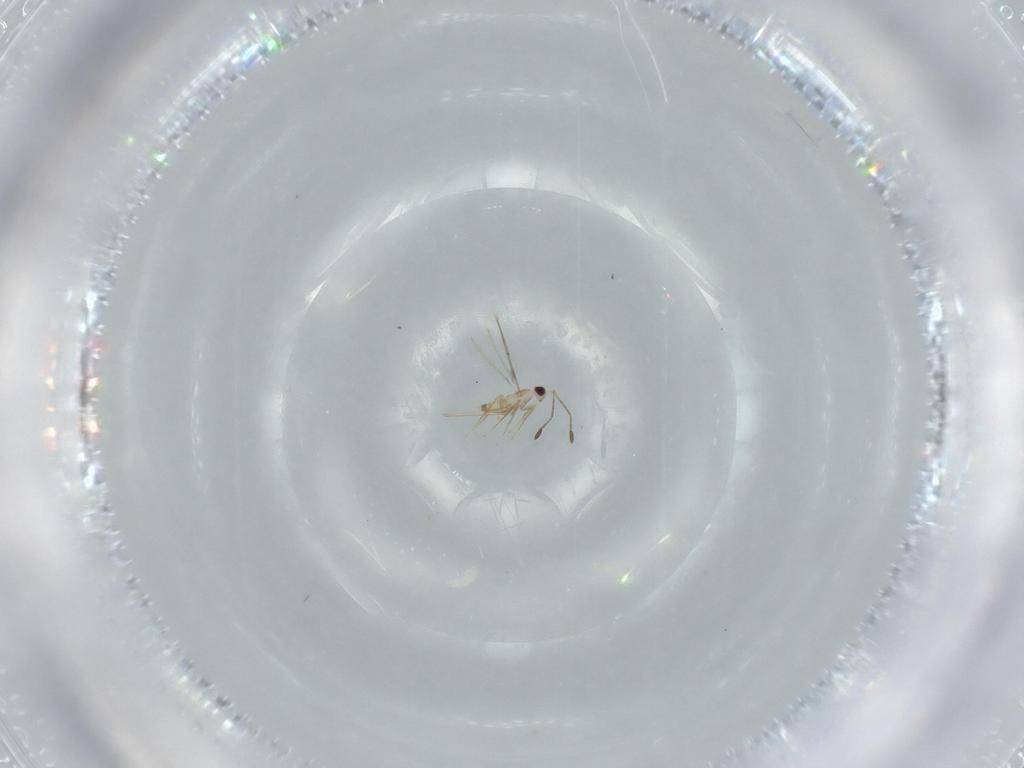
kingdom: Animalia
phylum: Arthropoda
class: Insecta
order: Hymenoptera
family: Mymaridae
